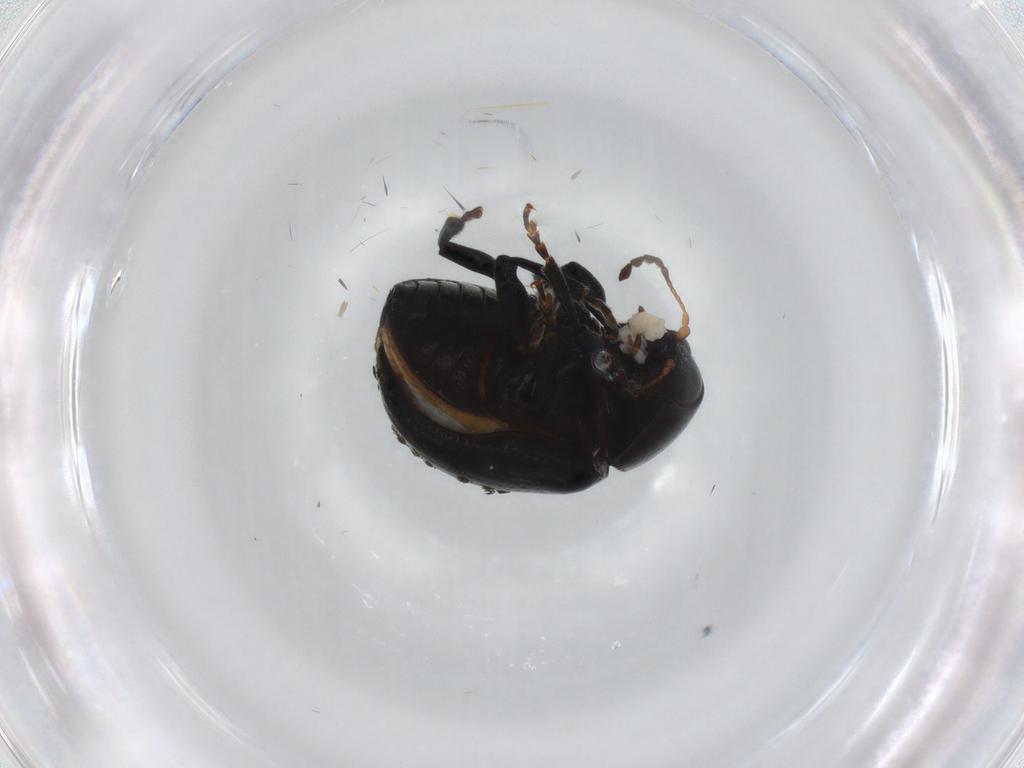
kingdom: Animalia
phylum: Arthropoda
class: Insecta
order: Coleoptera
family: Chrysomelidae
